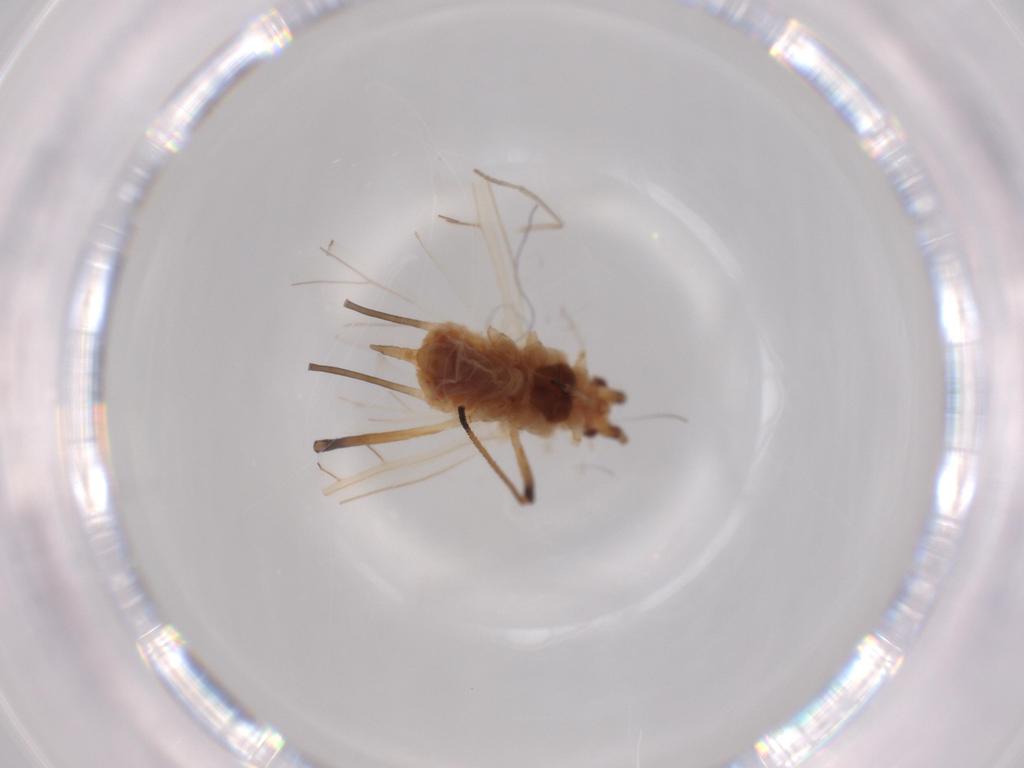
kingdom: Animalia
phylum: Arthropoda
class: Insecta
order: Hemiptera
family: Aphididae
